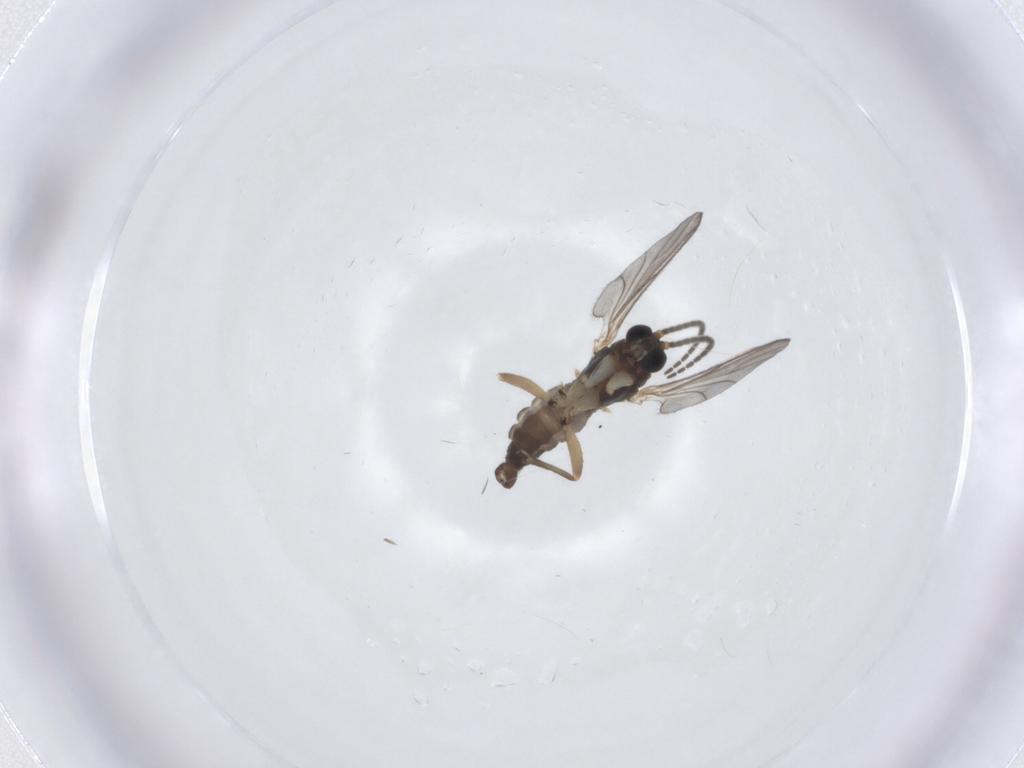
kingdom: Animalia
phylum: Arthropoda
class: Insecta
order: Diptera
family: Sciaridae
